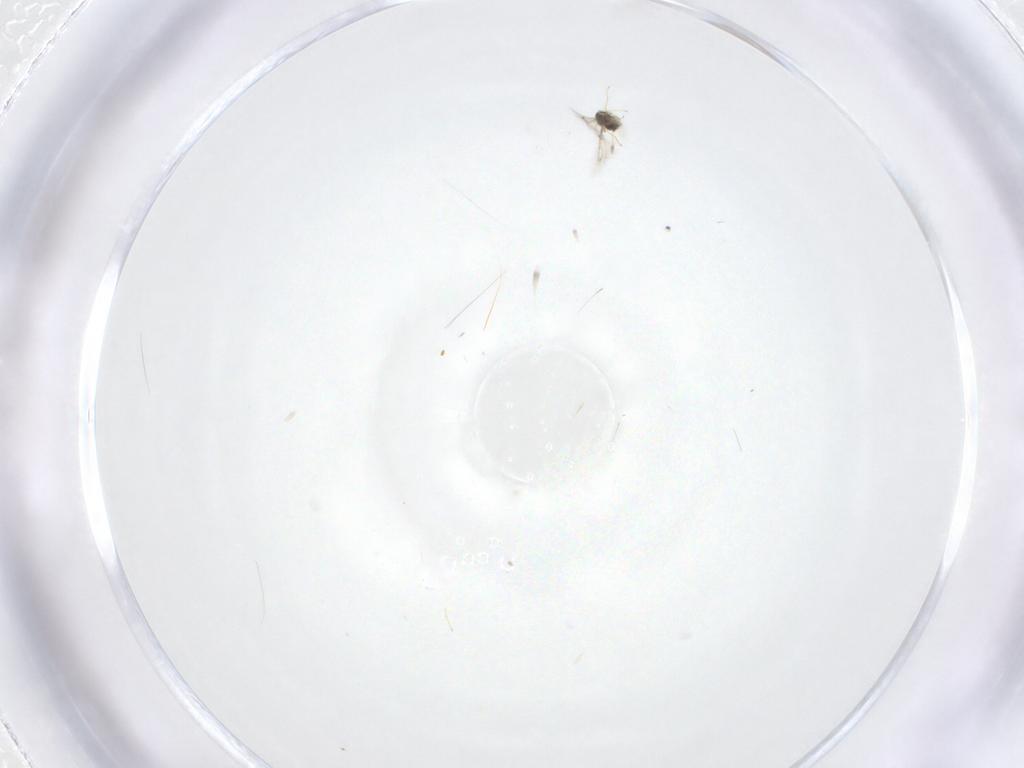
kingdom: Animalia
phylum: Arthropoda
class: Insecta
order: Hymenoptera
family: Mymaridae
